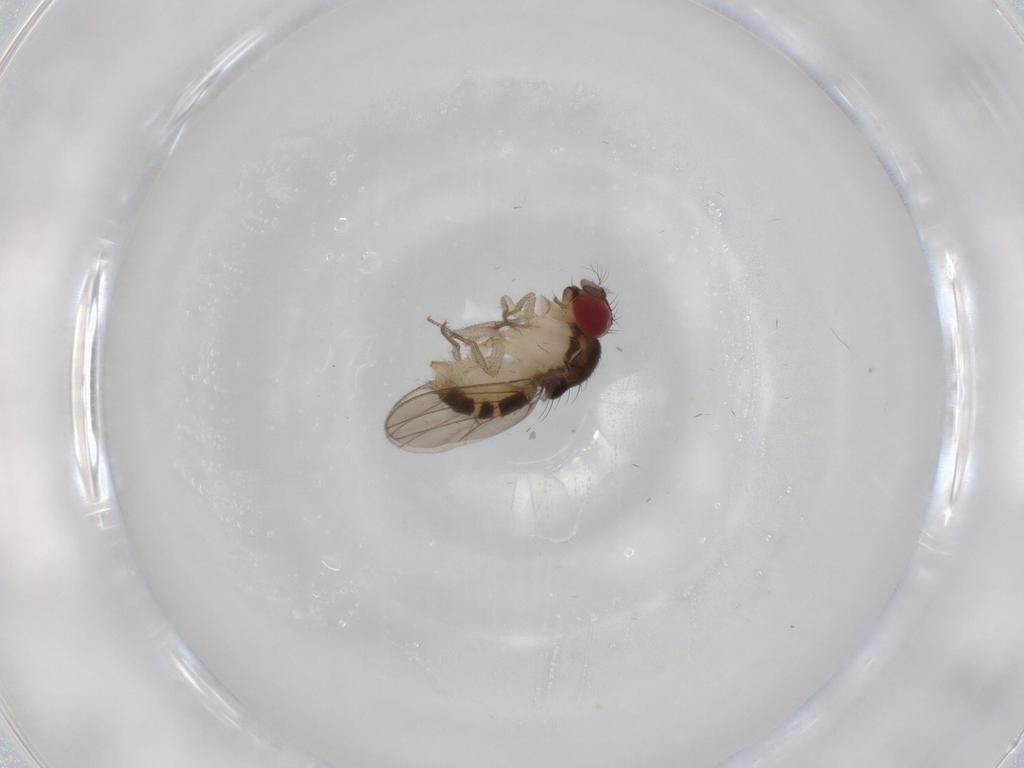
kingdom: Animalia
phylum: Arthropoda
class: Insecta
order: Diptera
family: Drosophilidae
